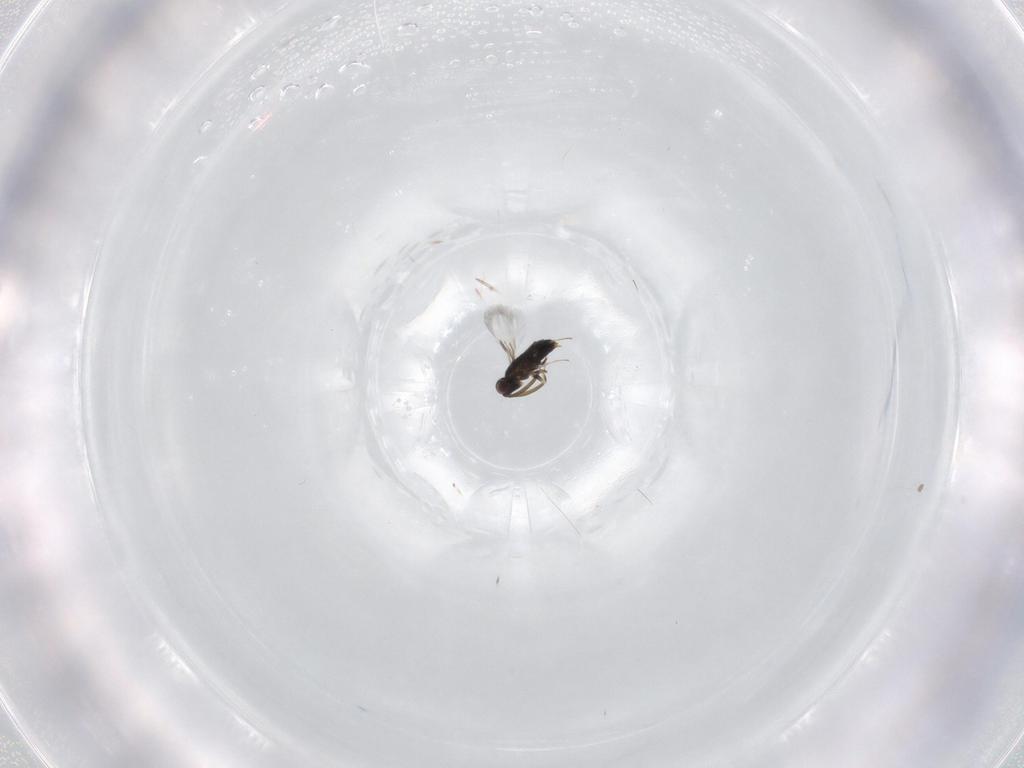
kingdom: Animalia
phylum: Arthropoda
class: Insecta
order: Hymenoptera
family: Signiphoridae
